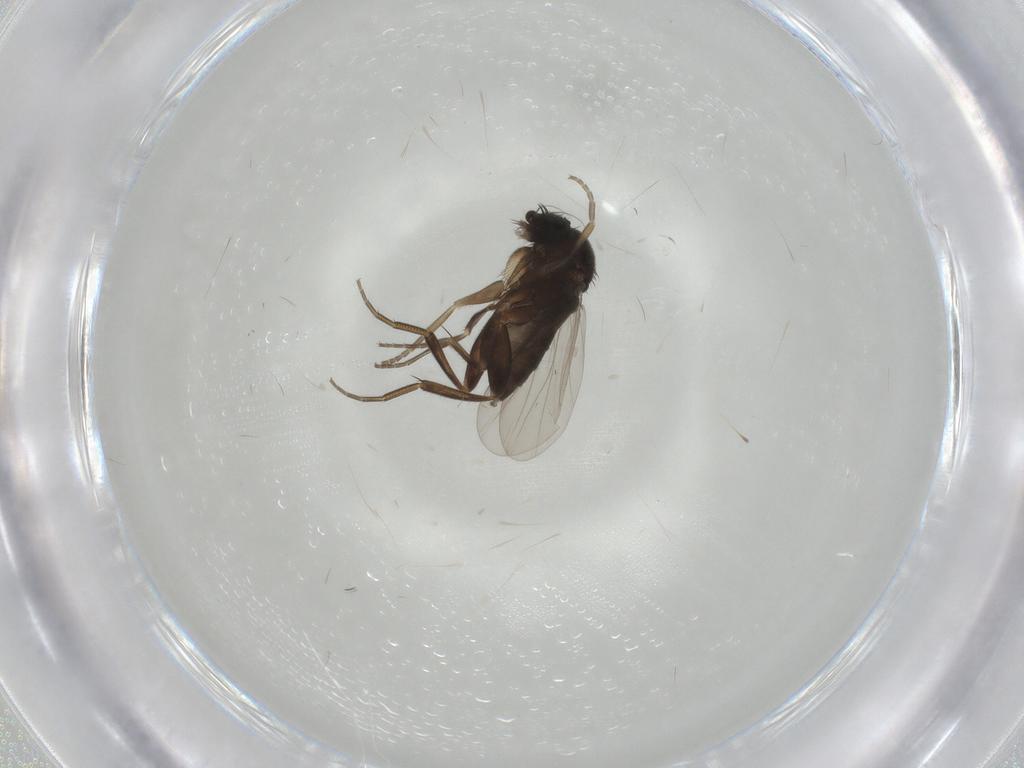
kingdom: Animalia
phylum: Arthropoda
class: Insecta
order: Diptera
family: Phoridae
